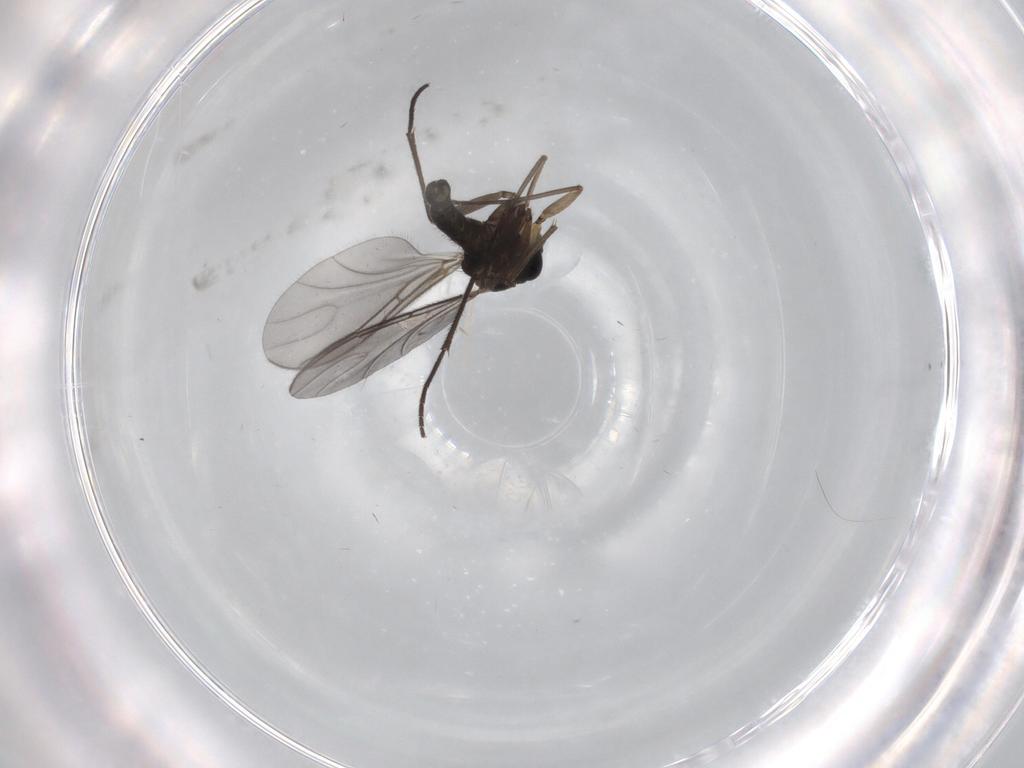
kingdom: Animalia
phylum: Arthropoda
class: Insecta
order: Diptera
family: Sciaridae
